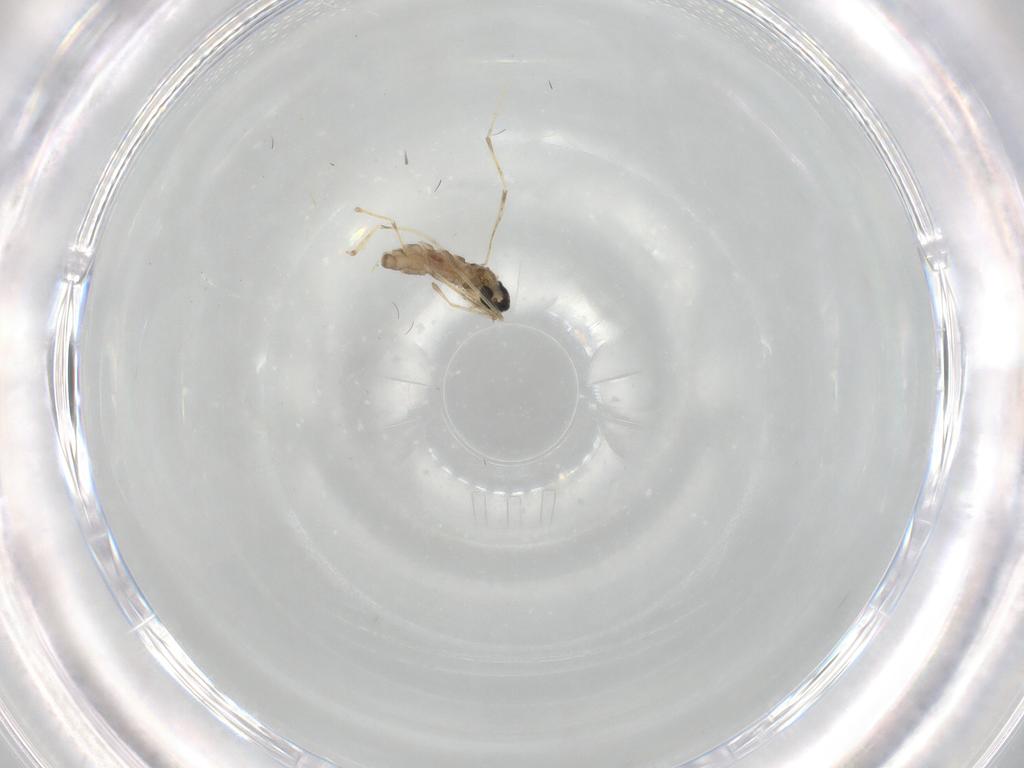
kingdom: Animalia
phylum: Arthropoda
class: Insecta
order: Diptera
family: Cecidomyiidae
